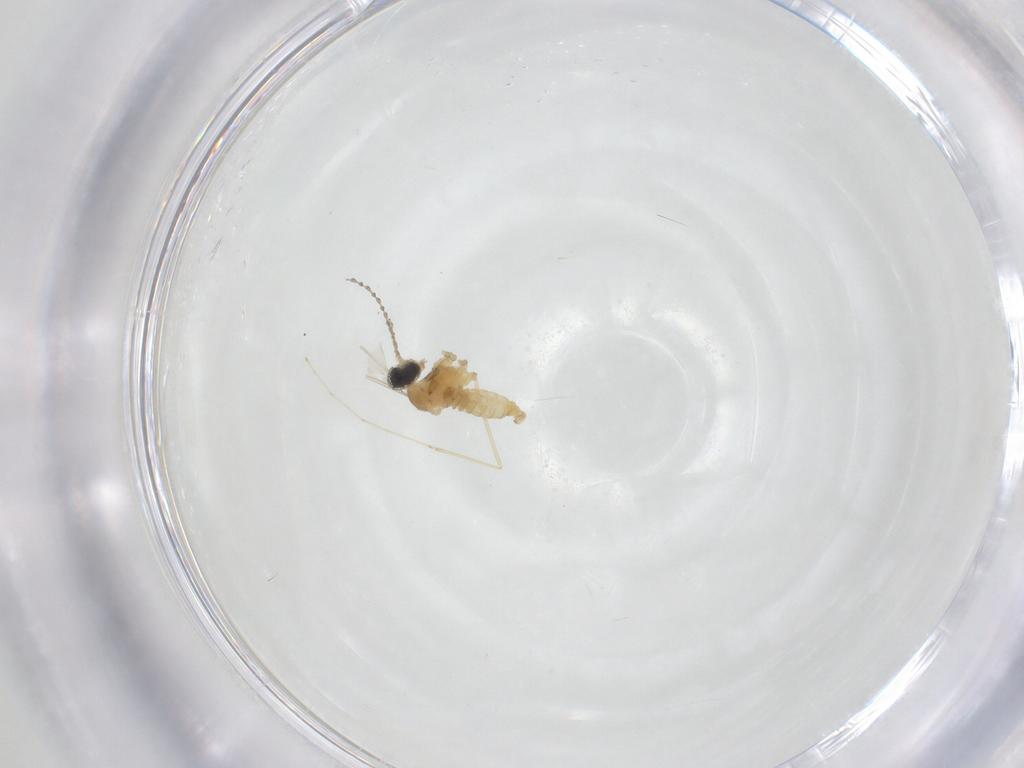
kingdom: Animalia
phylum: Arthropoda
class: Insecta
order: Diptera
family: Cecidomyiidae
